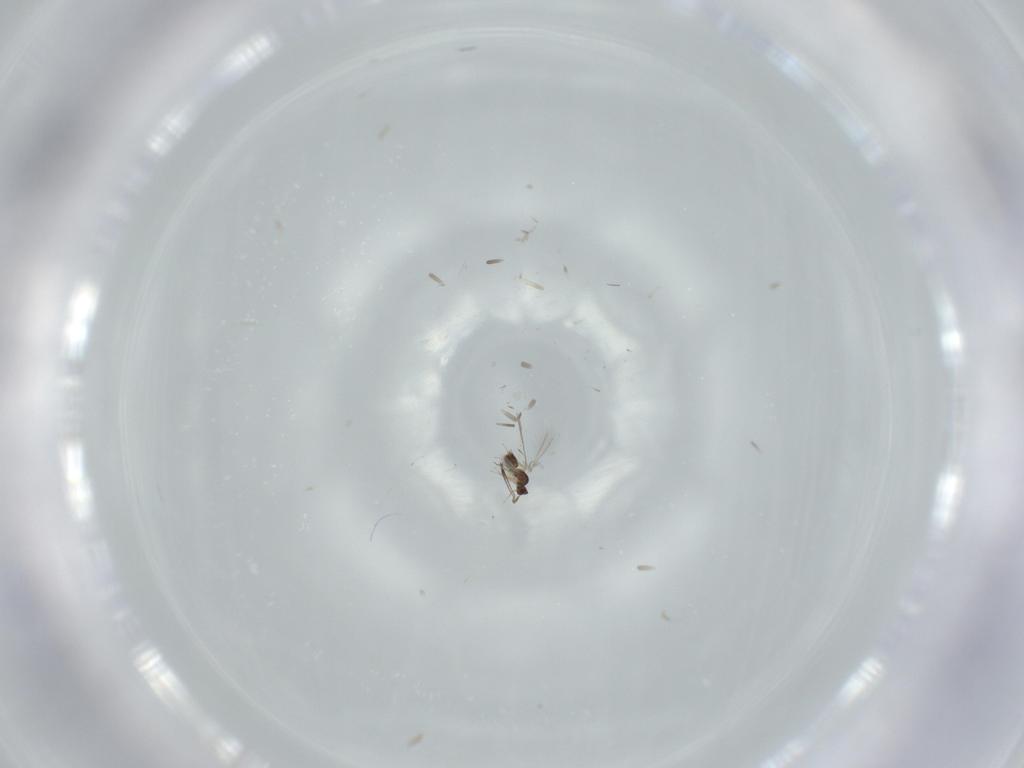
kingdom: Animalia
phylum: Arthropoda
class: Insecta
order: Hymenoptera
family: Mymaridae
